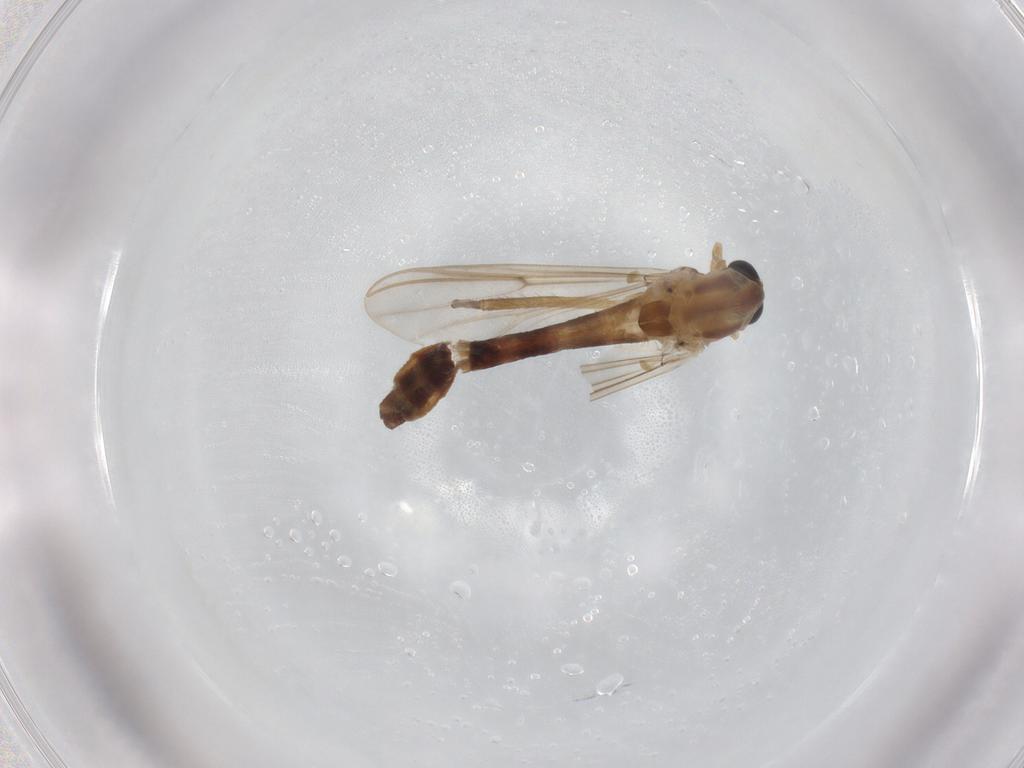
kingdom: Animalia
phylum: Arthropoda
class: Insecta
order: Diptera
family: Chironomidae
